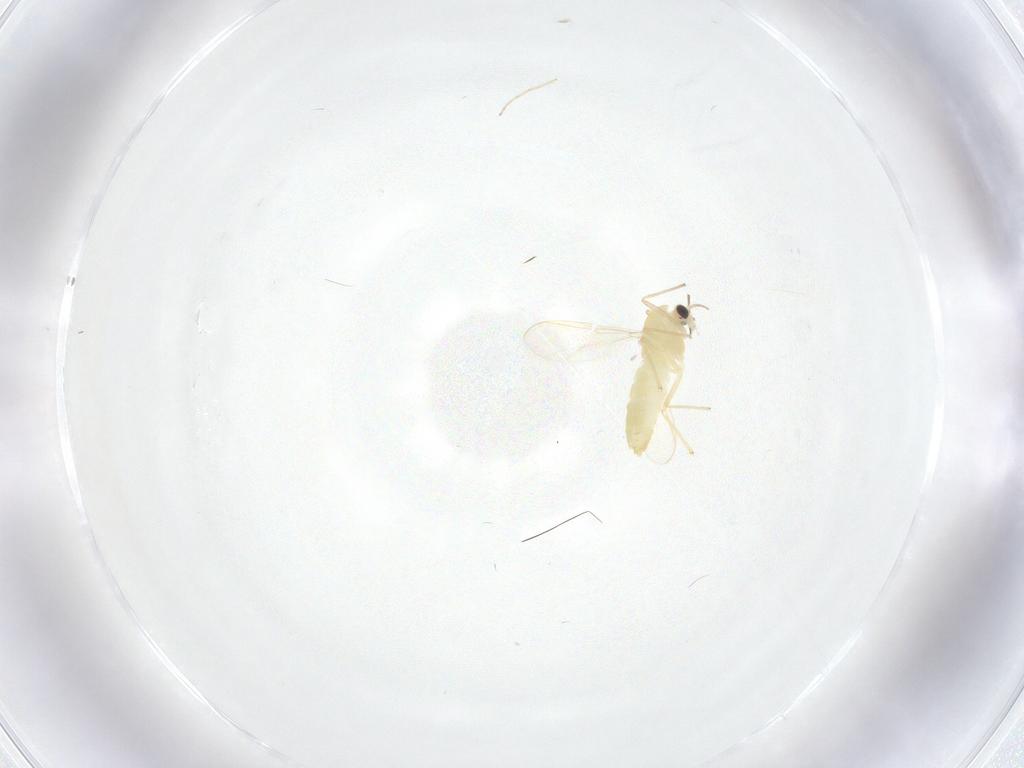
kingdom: Animalia
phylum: Arthropoda
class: Insecta
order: Diptera
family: Chironomidae
